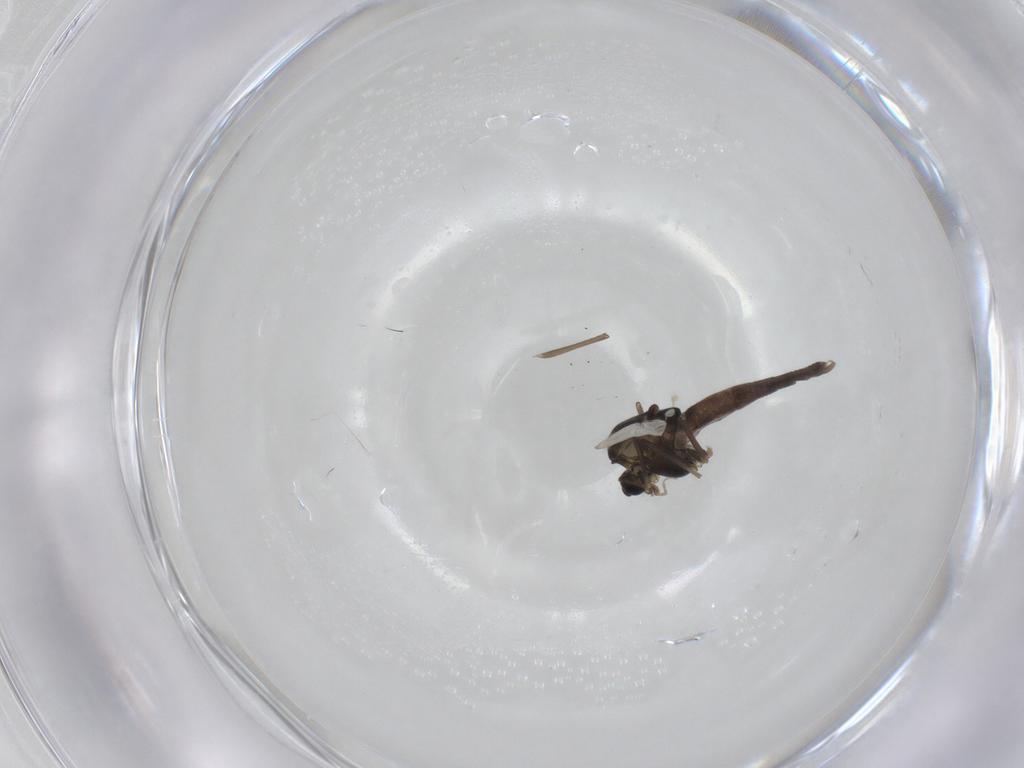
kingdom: Animalia
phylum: Arthropoda
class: Insecta
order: Diptera
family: Chironomidae
